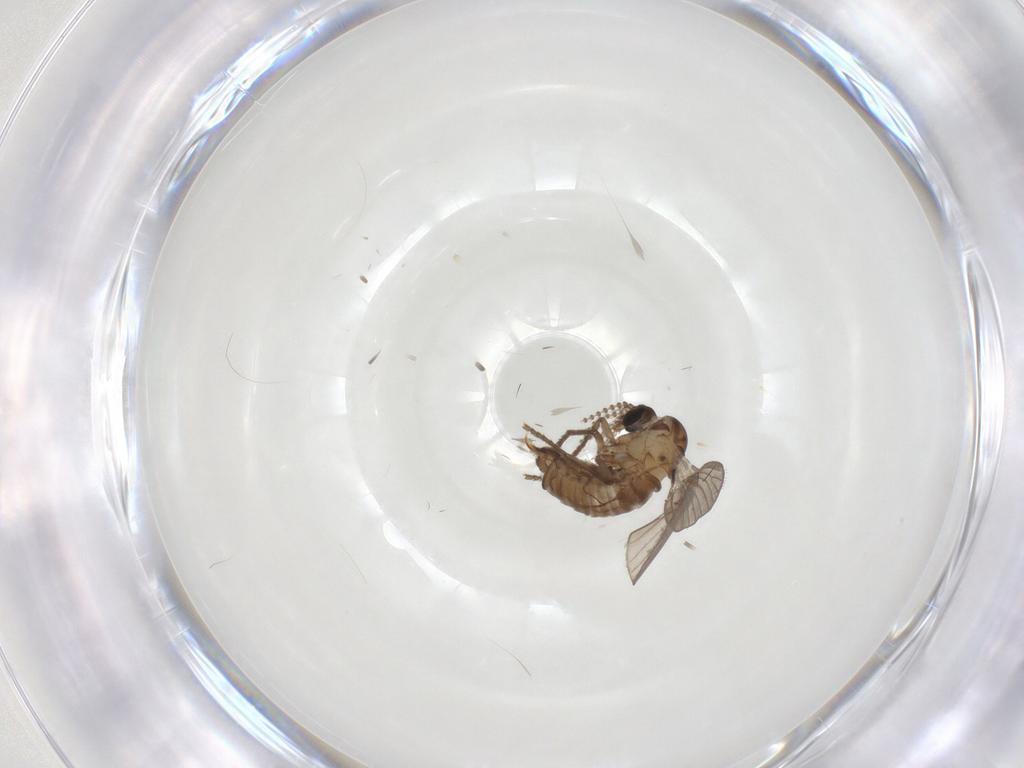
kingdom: Animalia
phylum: Arthropoda
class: Insecta
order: Diptera
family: Psychodidae
